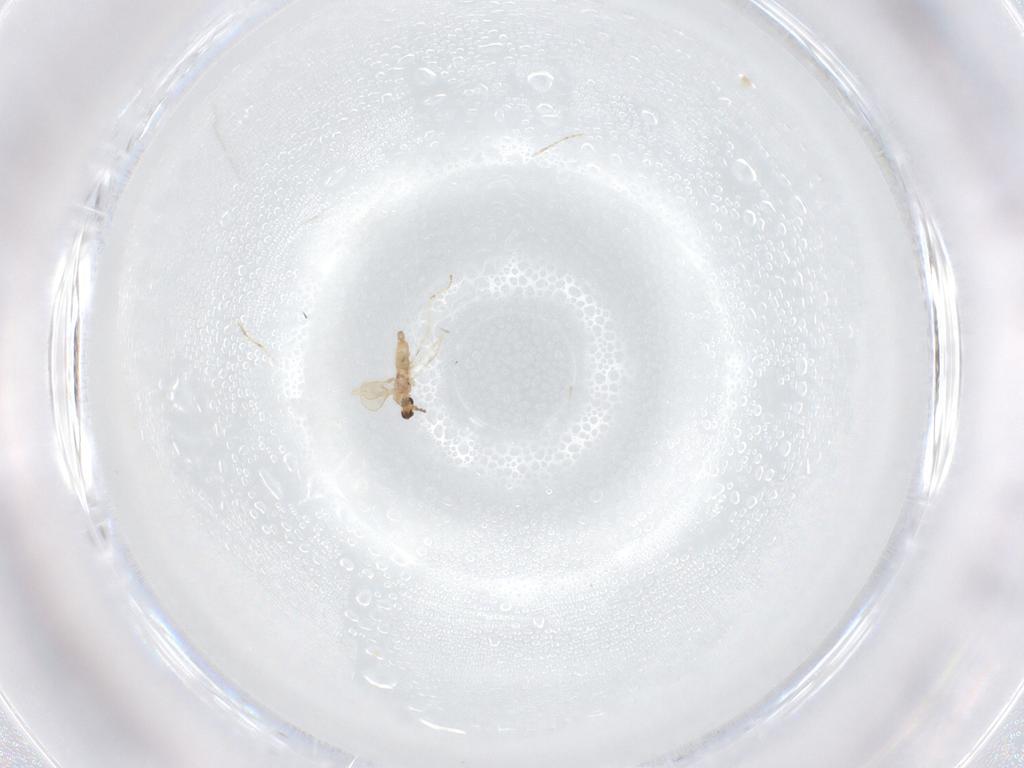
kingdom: Animalia
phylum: Arthropoda
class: Insecta
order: Diptera
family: Cecidomyiidae
